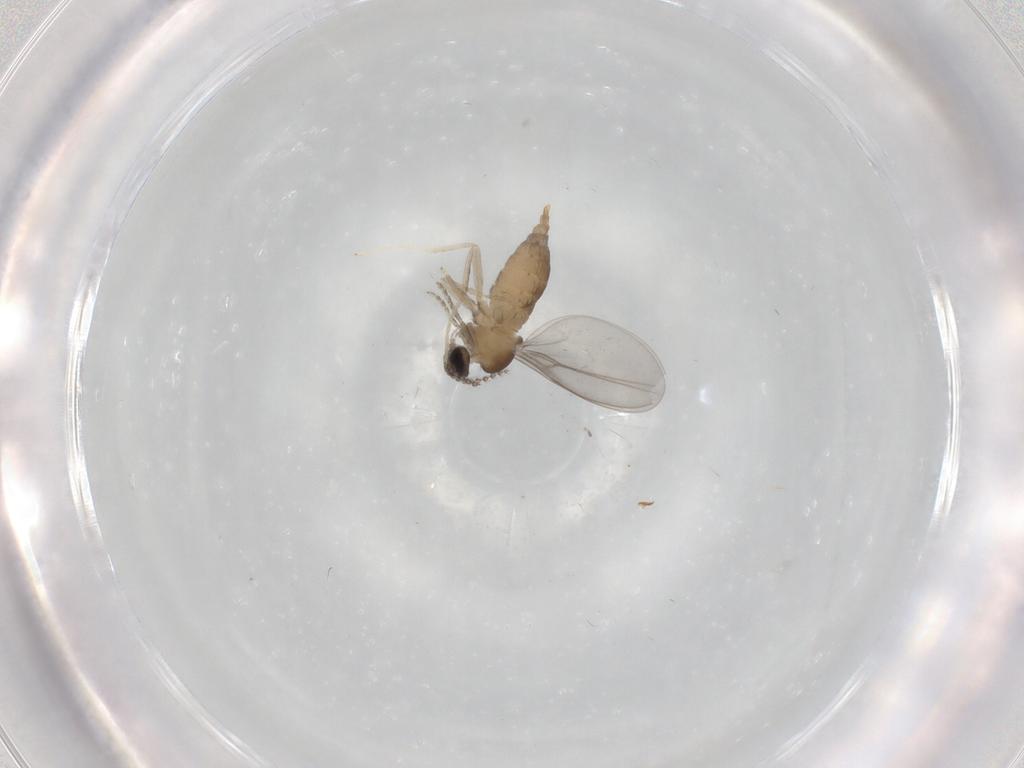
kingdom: Animalia
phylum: Arthropoda
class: Insecta
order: Diptera
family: Cecidomyiidae
